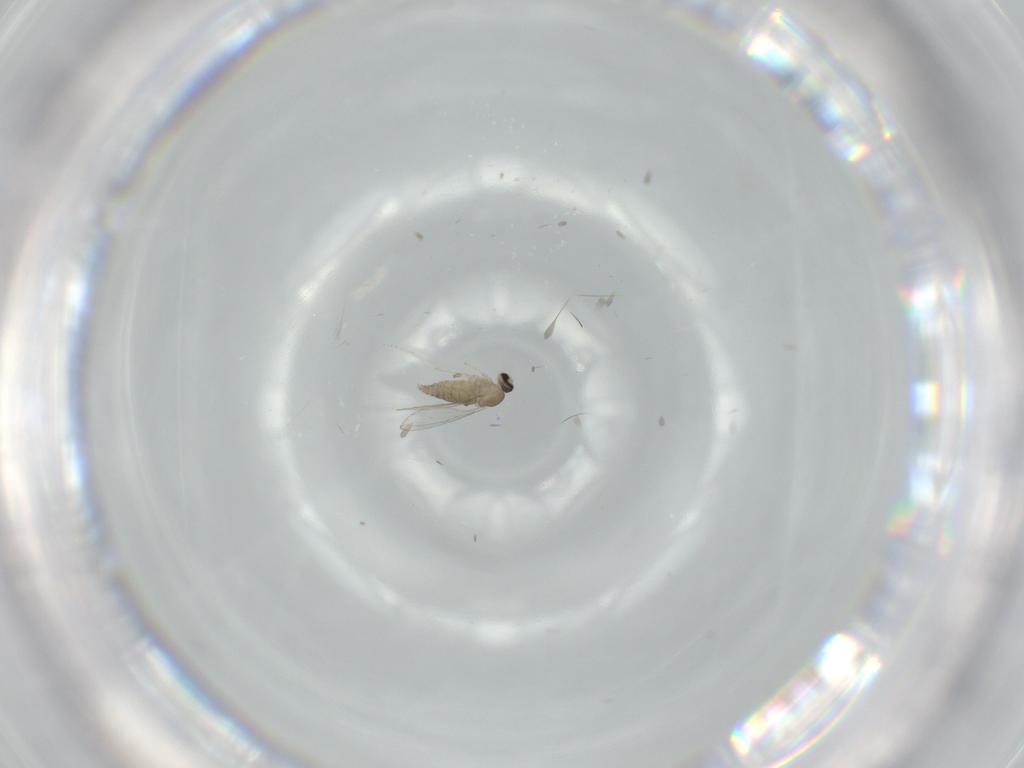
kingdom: Animalia
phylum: Arthropoda
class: Insecta
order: Diptera
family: Cecidomyiidae
